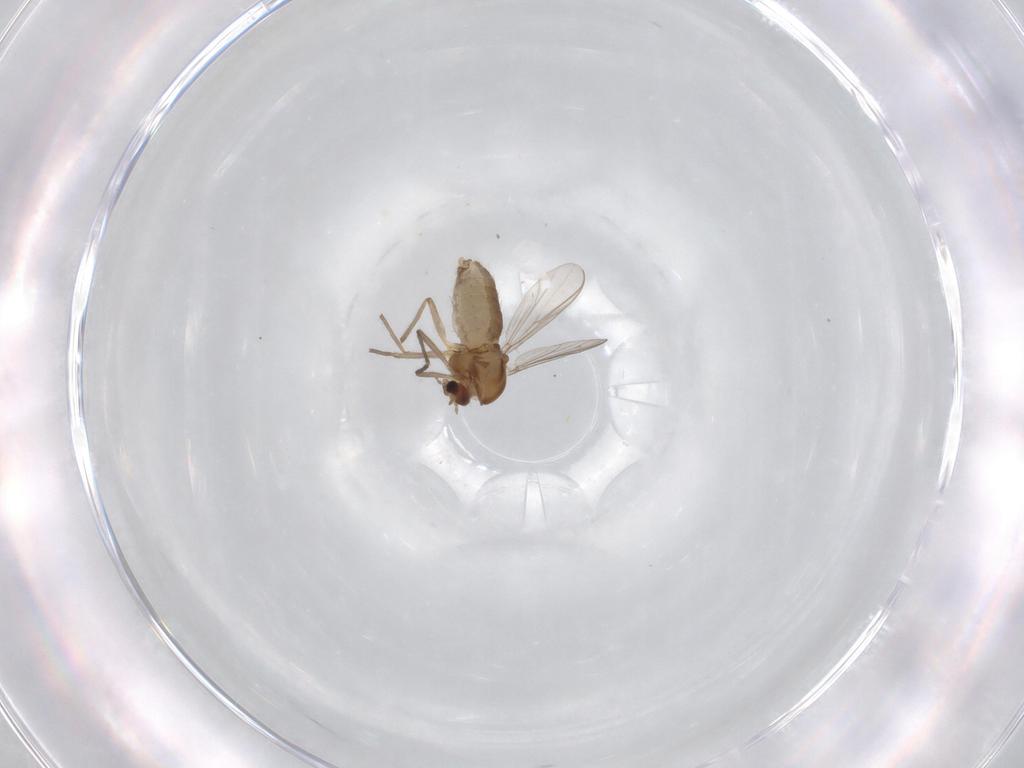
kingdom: Animalia
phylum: Arthropoda
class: Insecta
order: Diptera
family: Chironomidae
